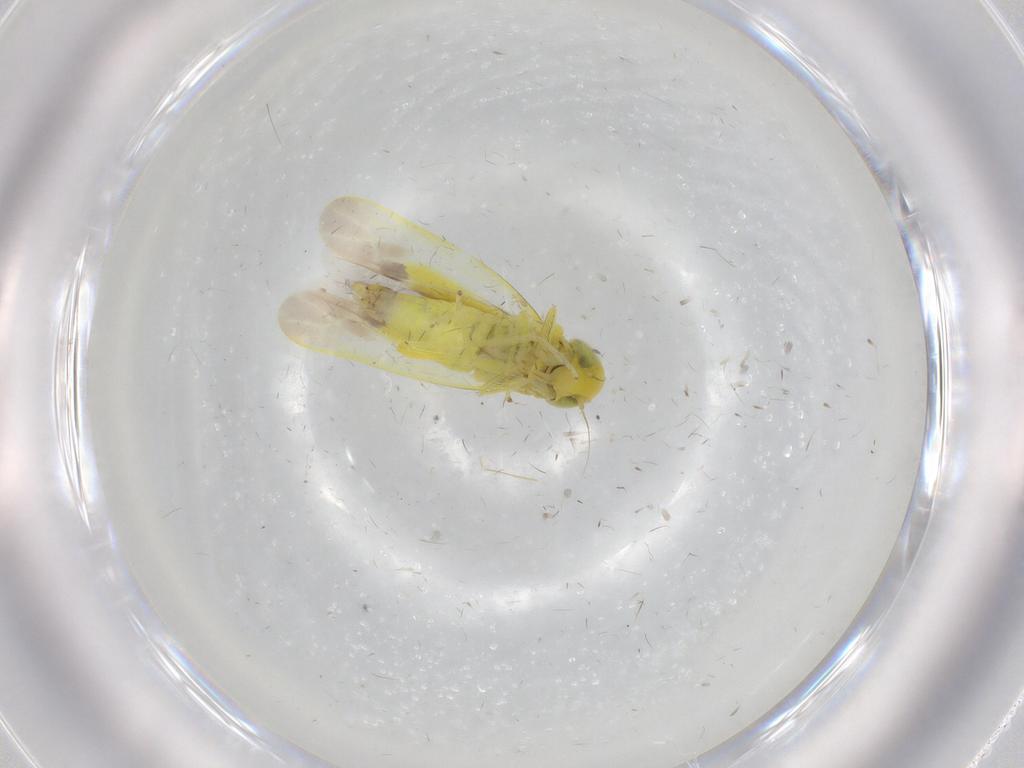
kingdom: Animalia
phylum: Arthropoda
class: Insecta
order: Hemiptera
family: Cicadellidae
